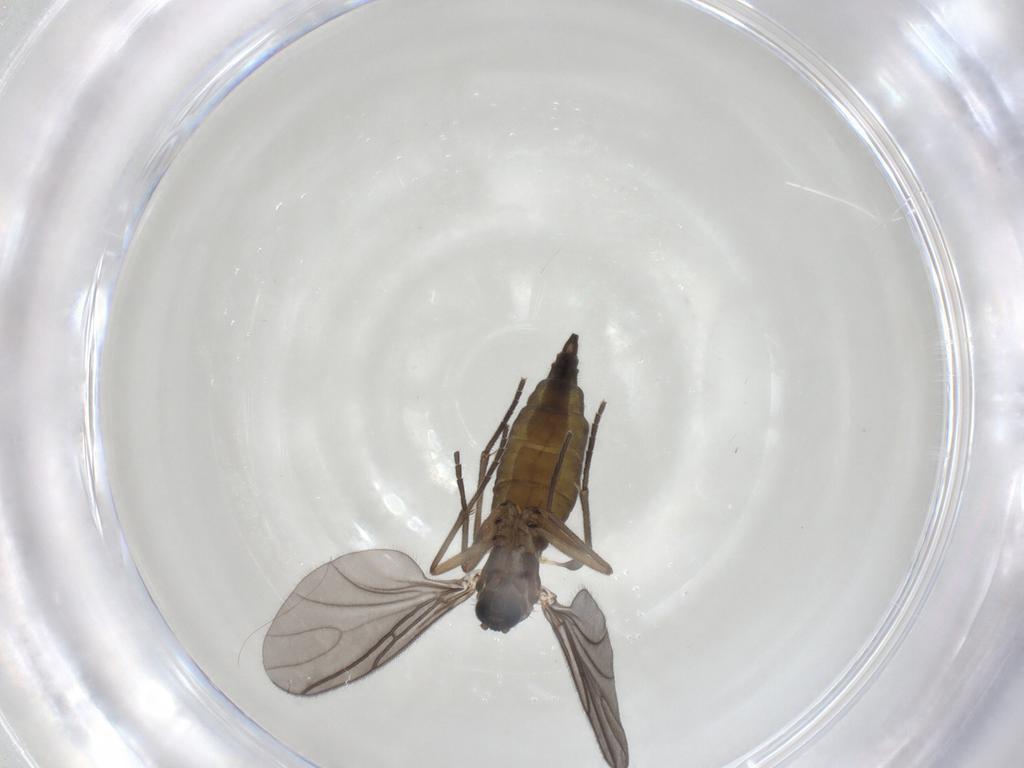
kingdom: Animalia
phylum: Arthropoda
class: Insecta
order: Diptera
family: Sciaridae
